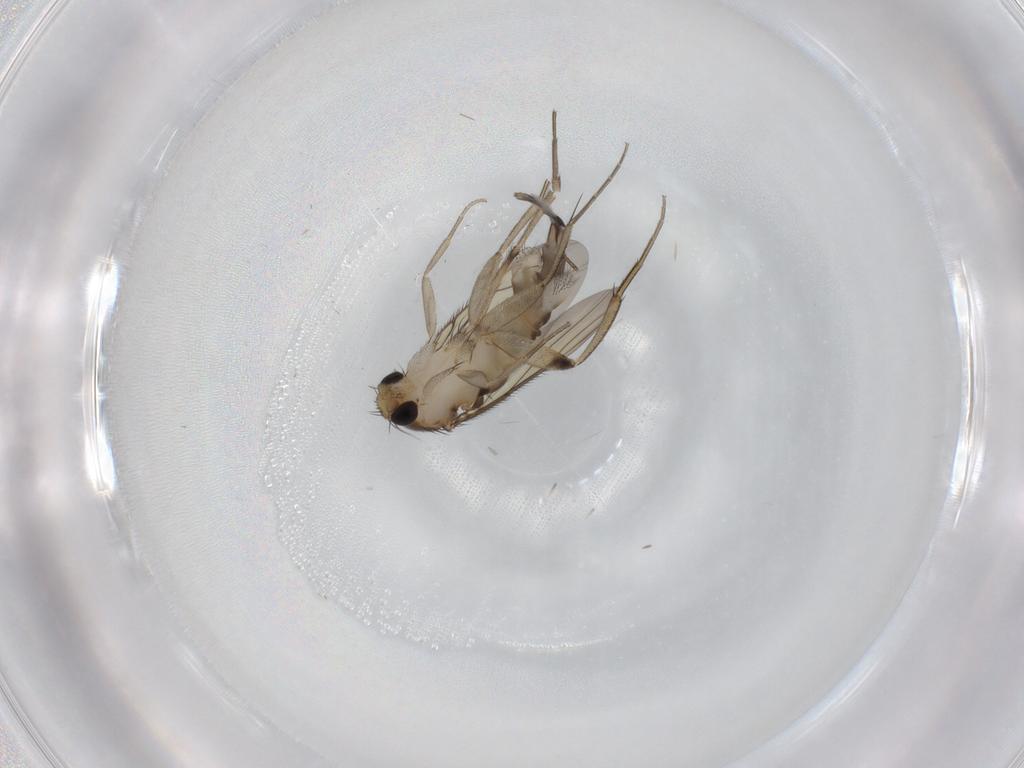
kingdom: Animalia
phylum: Arthropoda
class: Insecta
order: Diptera
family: Phoridae
